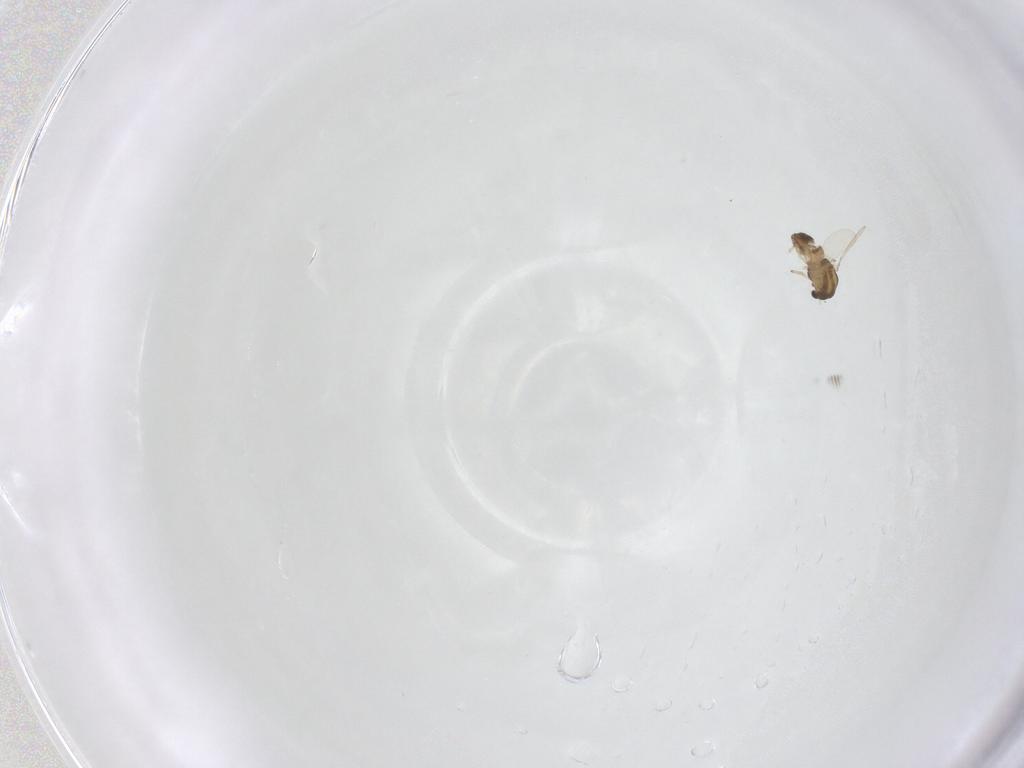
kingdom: Animalia
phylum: Arthropoda
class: Insecta
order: Diptera
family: Chironomidae
